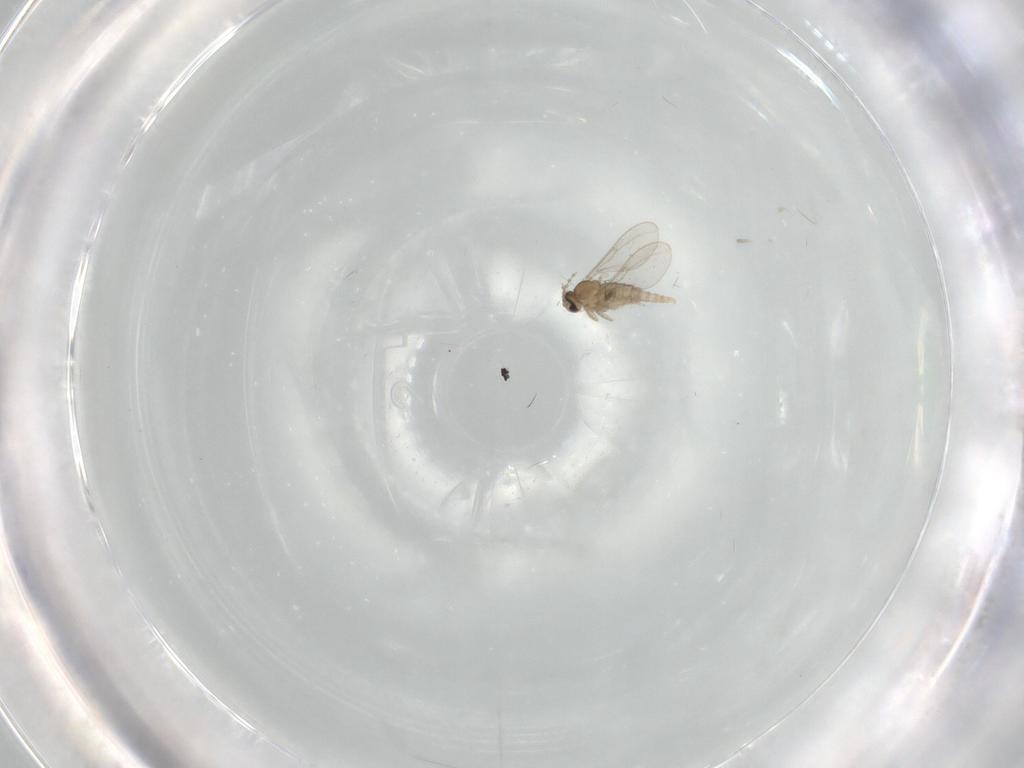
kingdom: Animalia
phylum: Arthropoda
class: Insecta
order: Diptera
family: Cecidomyiidae
